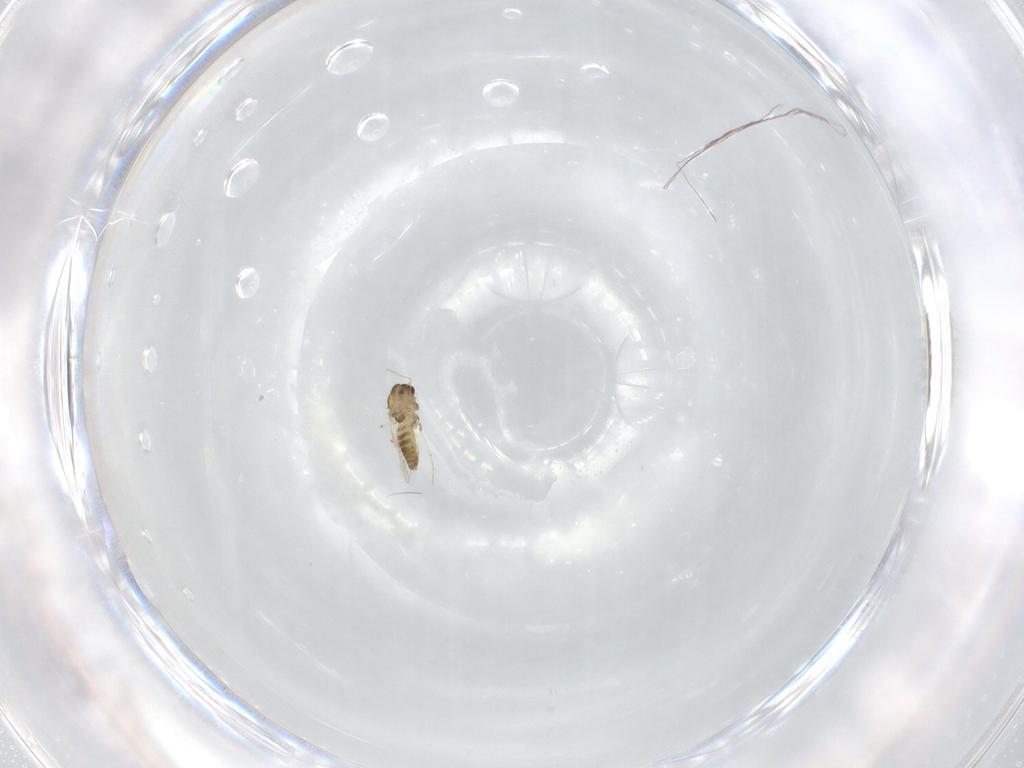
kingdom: Animalia
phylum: Arthropoda
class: Insecta
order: Diptera
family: Chironomidae
